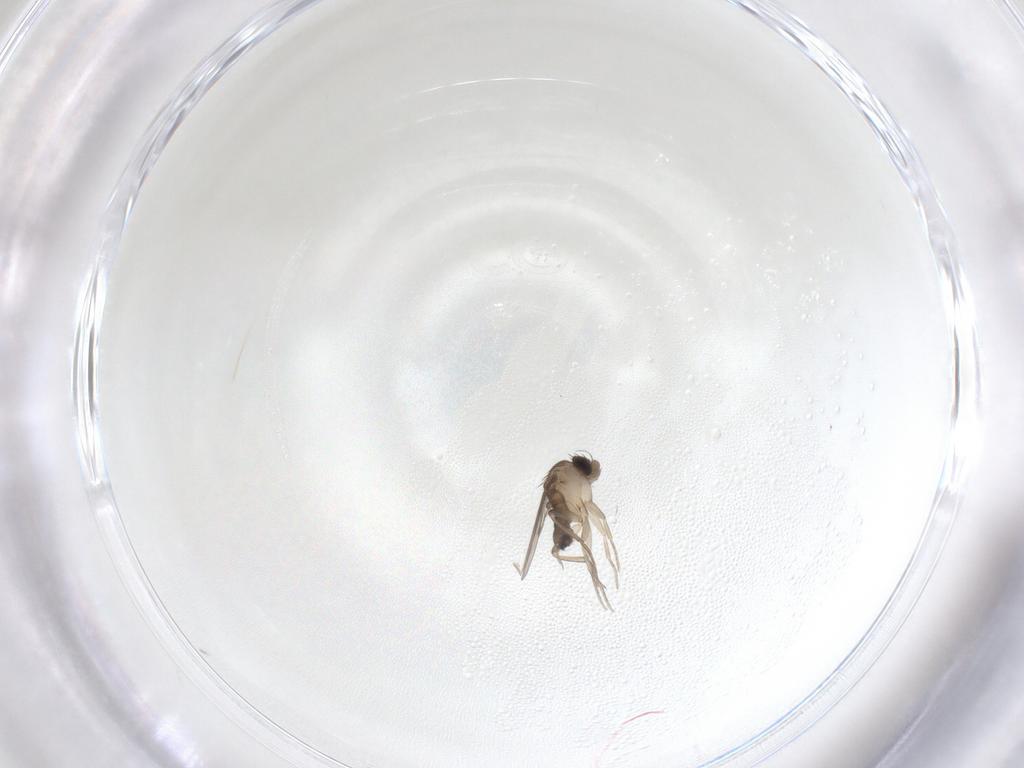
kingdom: Animalia
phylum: Arthropoda
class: Insecta
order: Diptera
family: Phoridae
